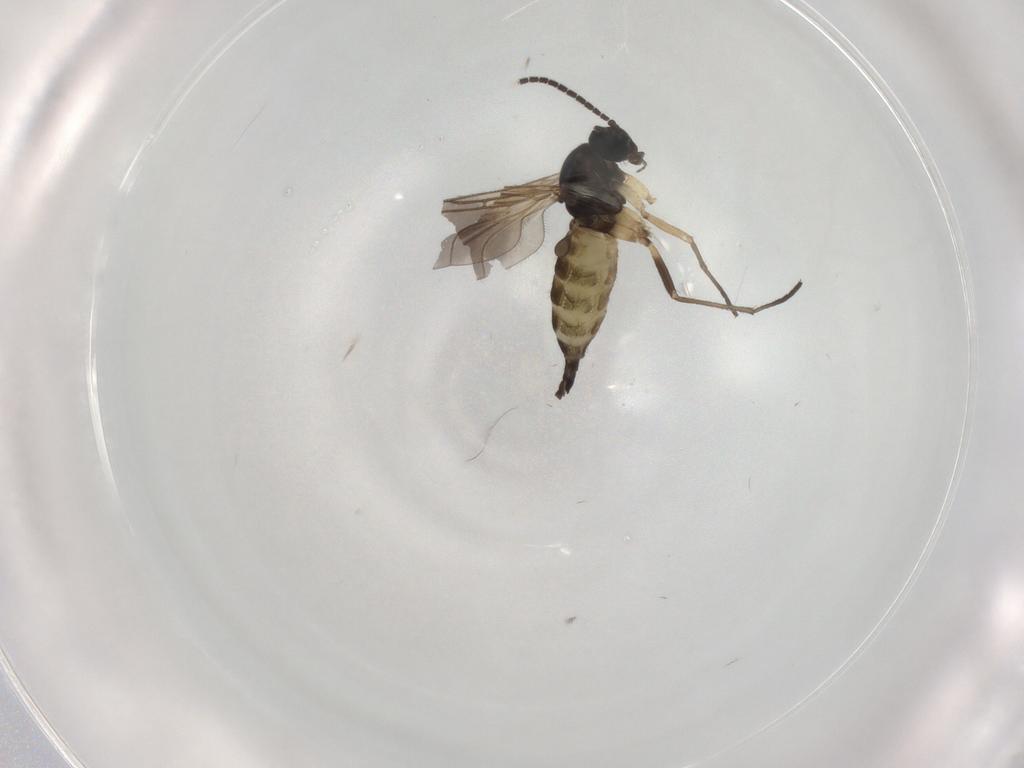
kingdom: Animalia
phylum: Arthropoda
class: Insecta
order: Diptera
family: Sciaridae
